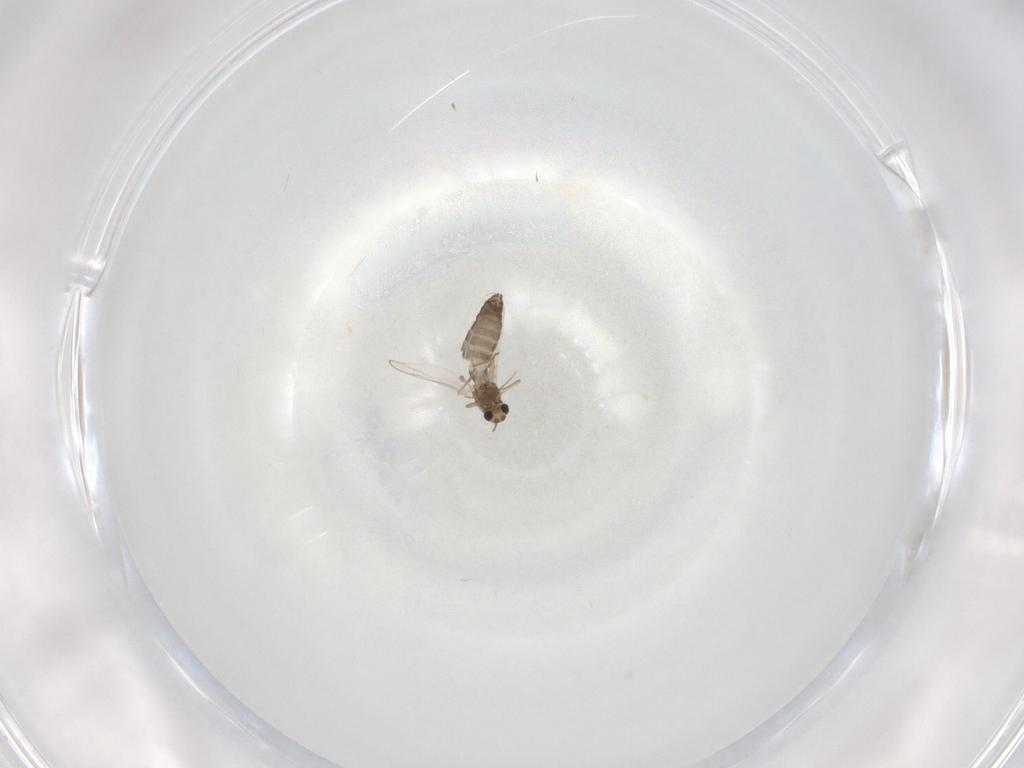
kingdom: Animalia
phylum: Arthropoda
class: Insecta
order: Diptera
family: Chironomidae
